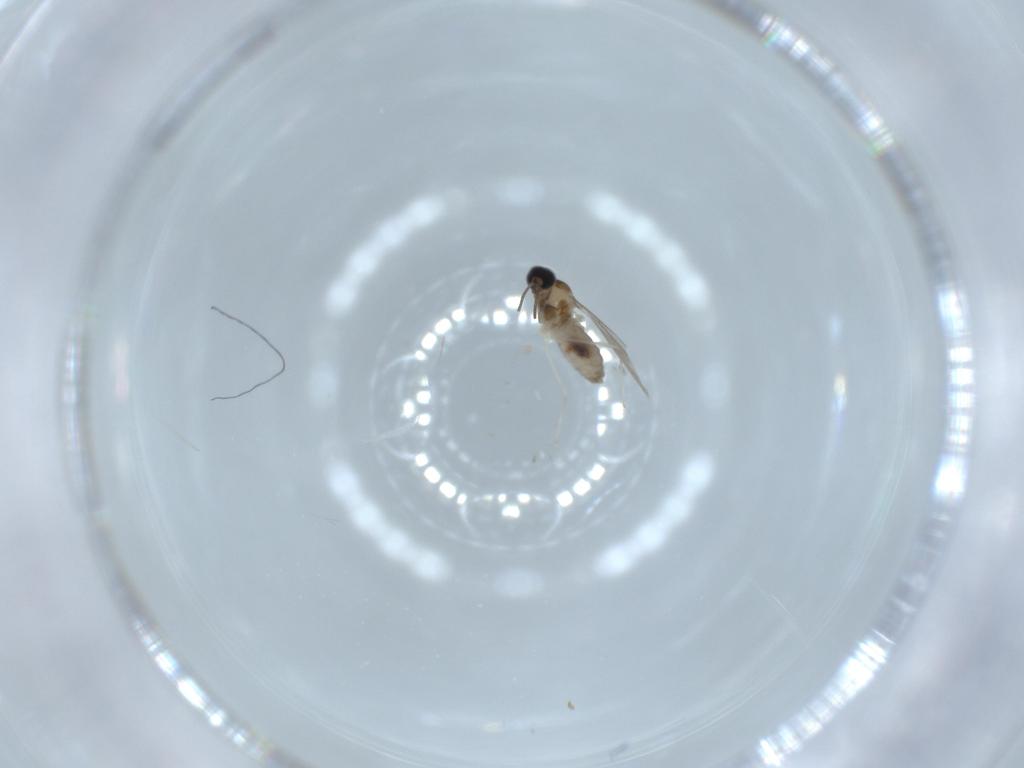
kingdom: Animalia
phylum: Arthropoda
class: Insecta
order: Diptera
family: Cecidomyiidae
